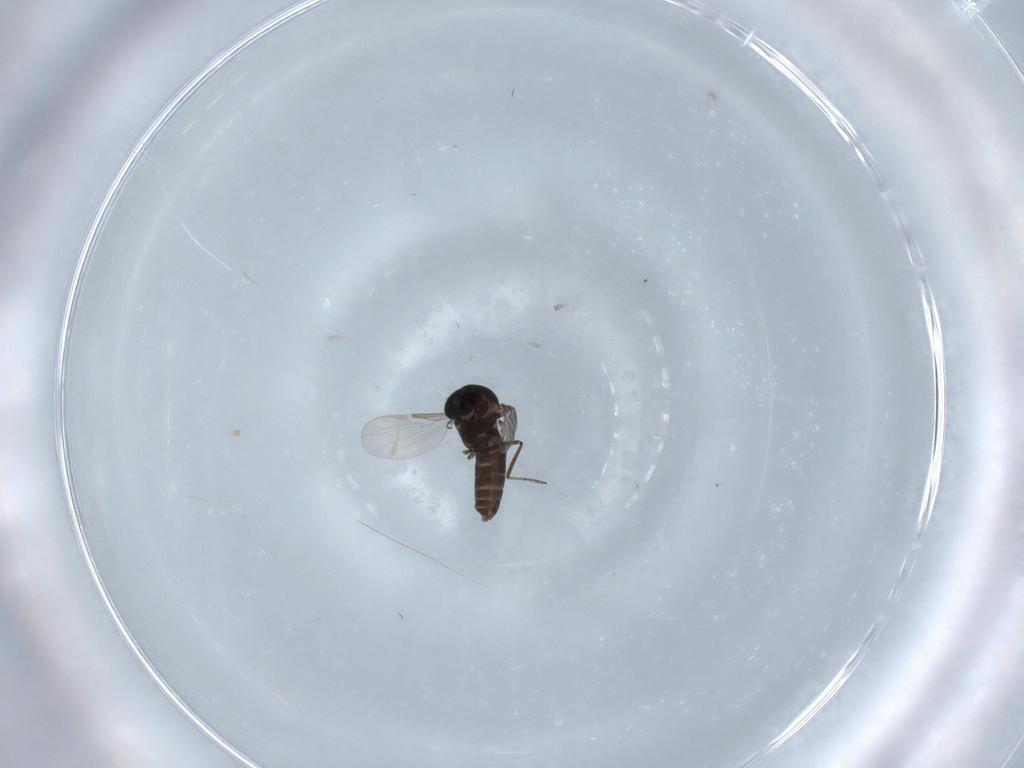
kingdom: Animalia
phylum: Arthropoda
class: Insecta
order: Diptera
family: Ceratopogonidae
